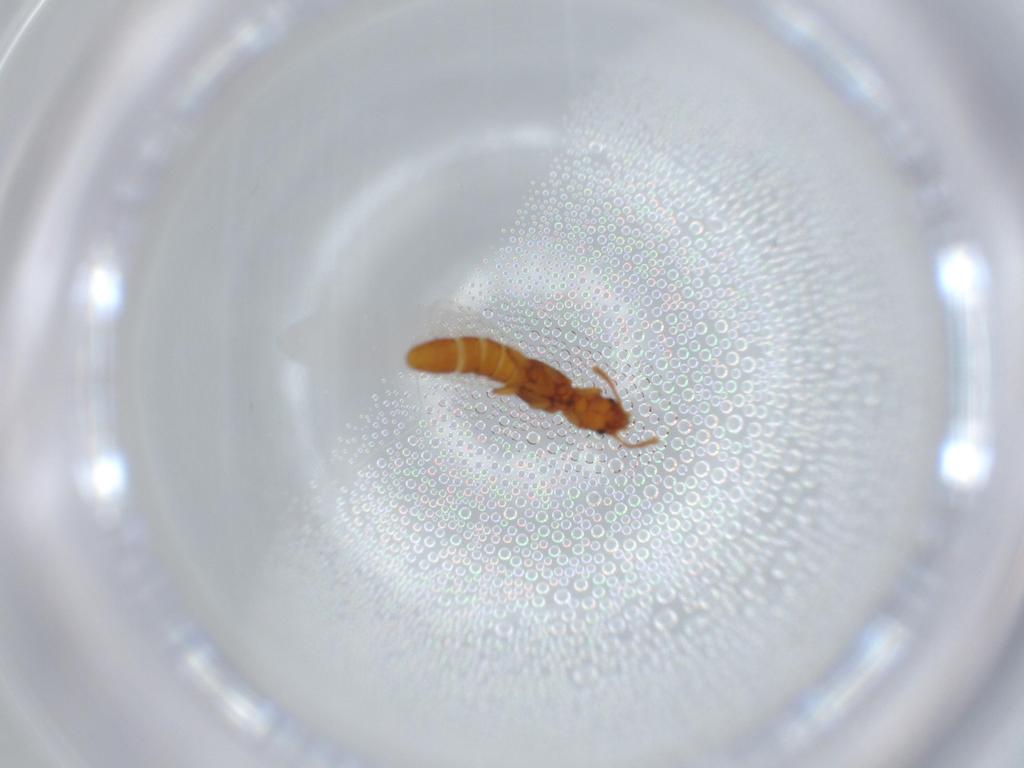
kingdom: Animalia
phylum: Arthropoda
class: Insecta
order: Coleoptera
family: Staphylinidae
